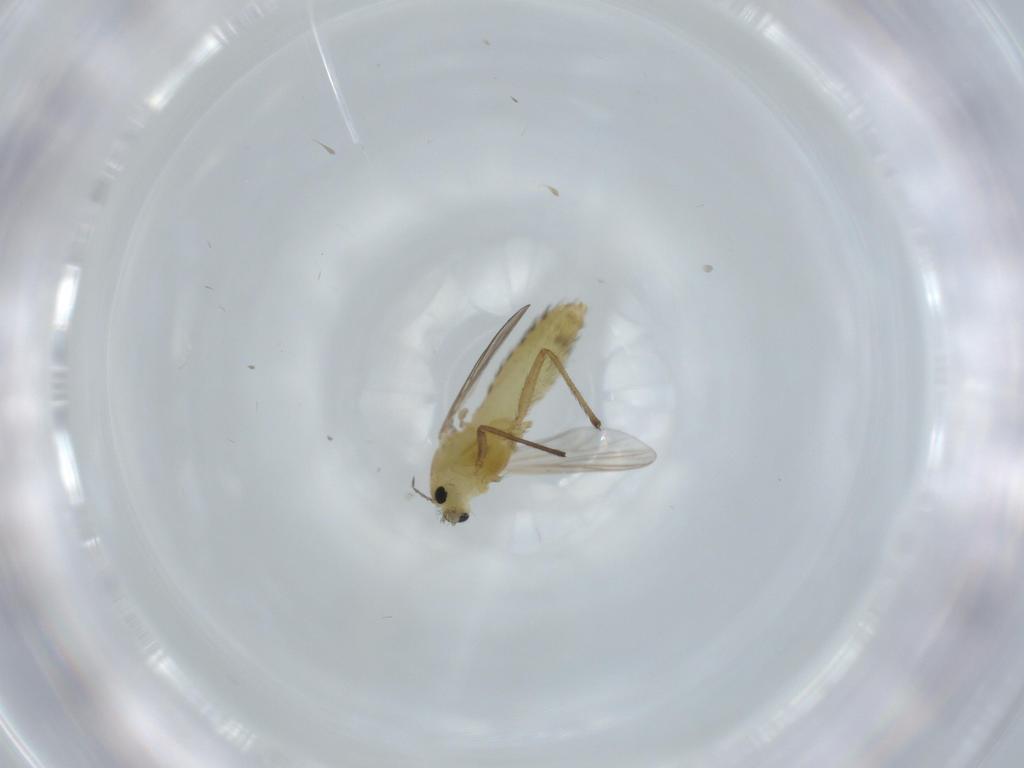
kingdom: Animalia
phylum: Arthropoda
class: Insecta
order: Diptera
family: Chironomidae
